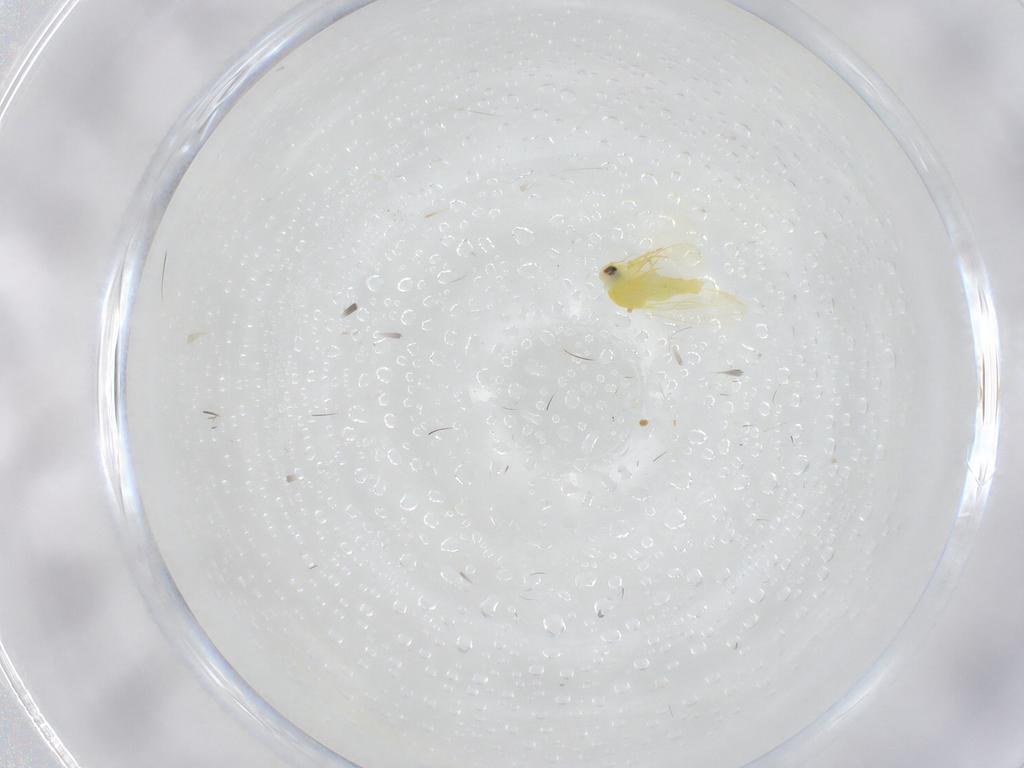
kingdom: Animalia
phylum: Arthropoda
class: Insecta
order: Hemiptera
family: Aleyrodidae
